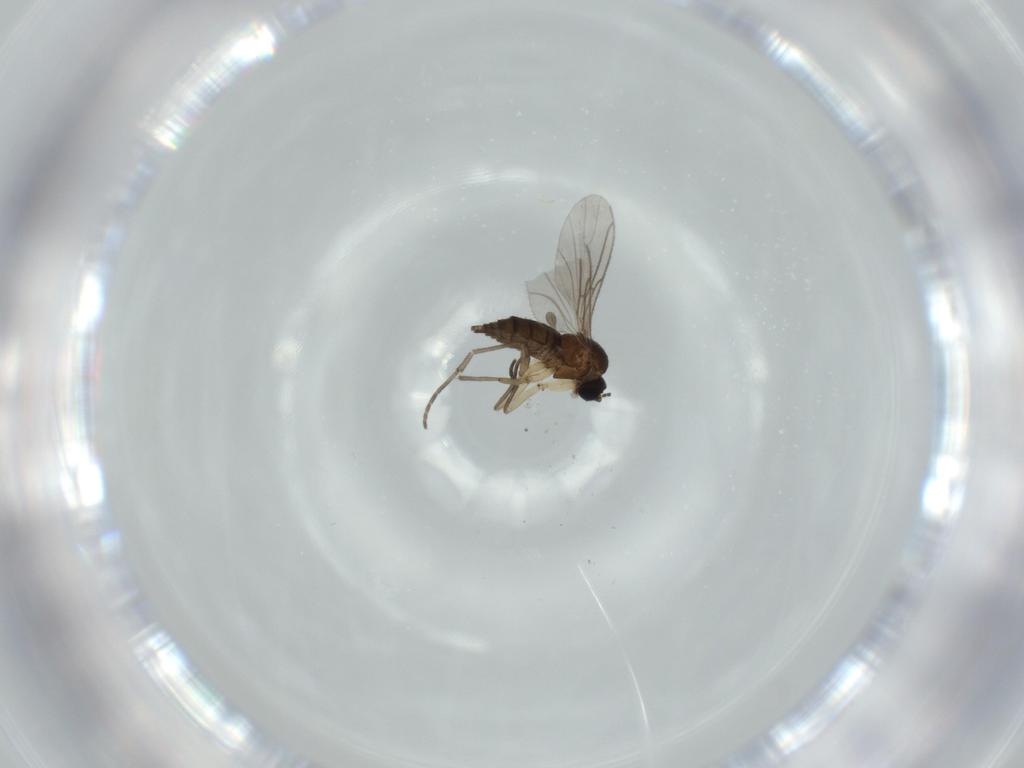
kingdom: Animalia
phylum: Arthropoda
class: Insecta
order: Diptera
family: Sciaridae
